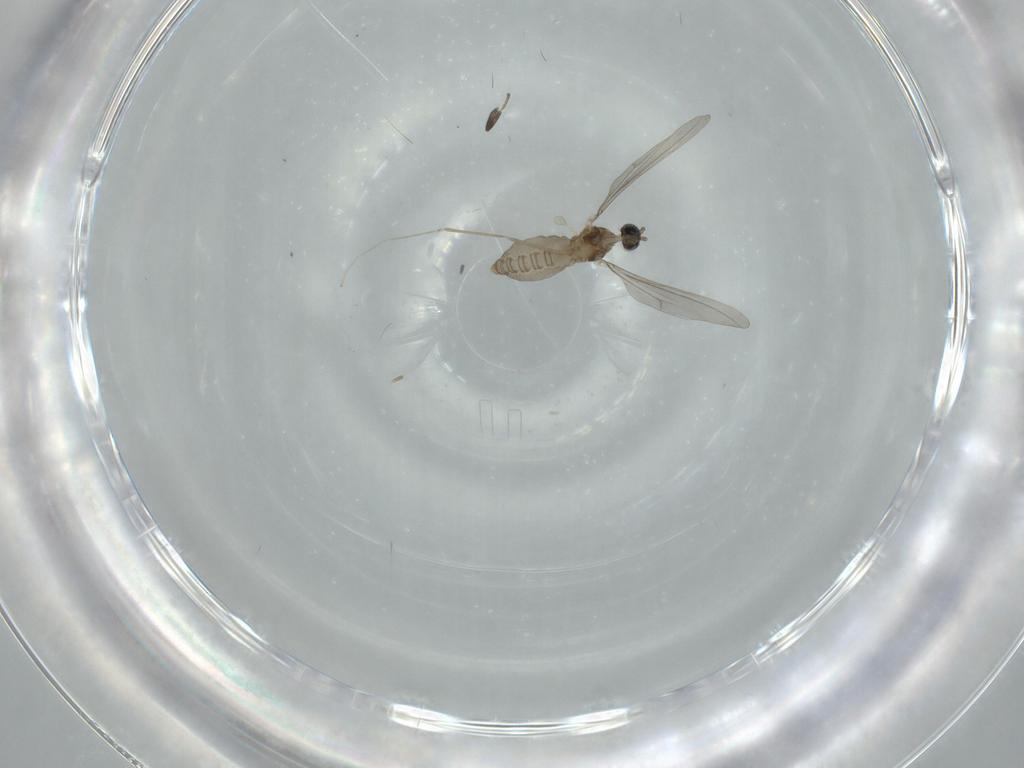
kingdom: Animalia
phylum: Arthropoda
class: Insecta
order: Diptera
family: Cecidomyiidae
